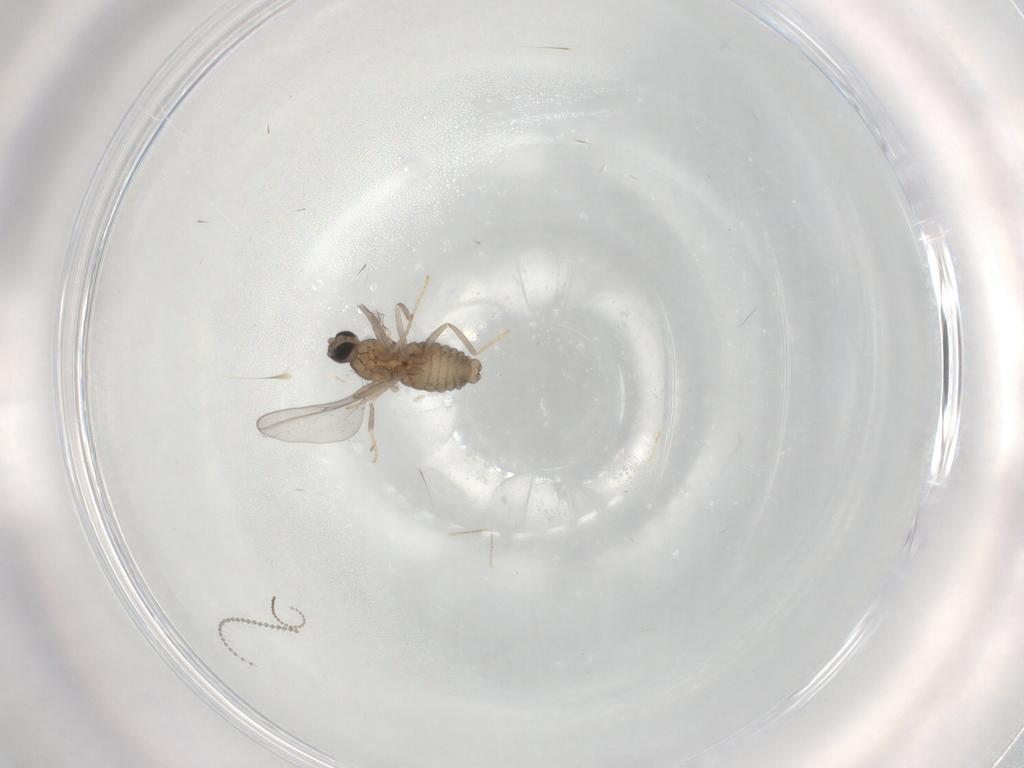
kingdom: Animalia
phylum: Arthropoda
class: Insecta
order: Diptera
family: Cecidomyiidae
